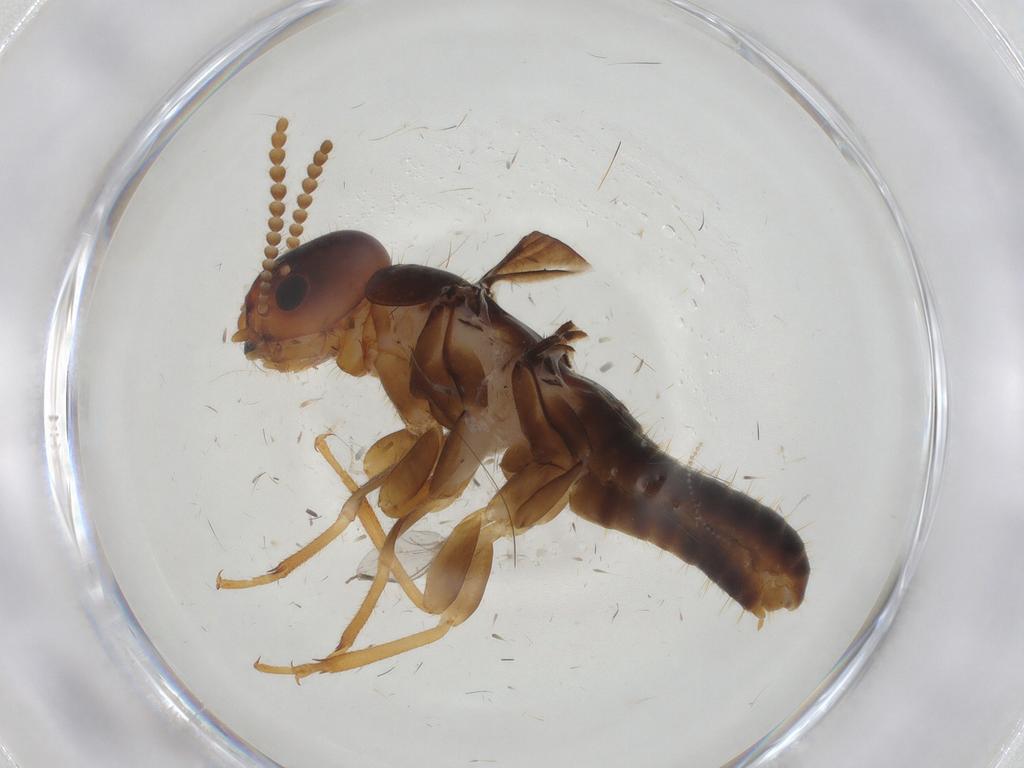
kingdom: Animalia
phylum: Arthropoda
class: Insecta
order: Blattodea
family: Kalotermitidae
